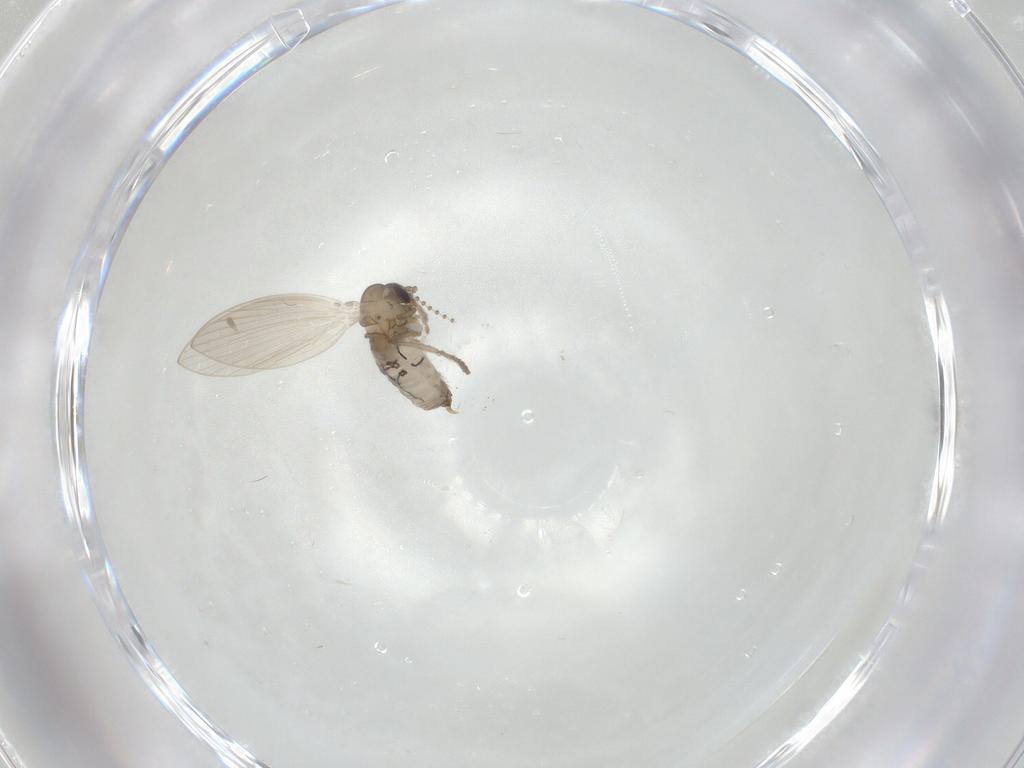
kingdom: Animalia
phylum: Arthropoda
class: Insecta
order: Diptera
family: Psychodidae
